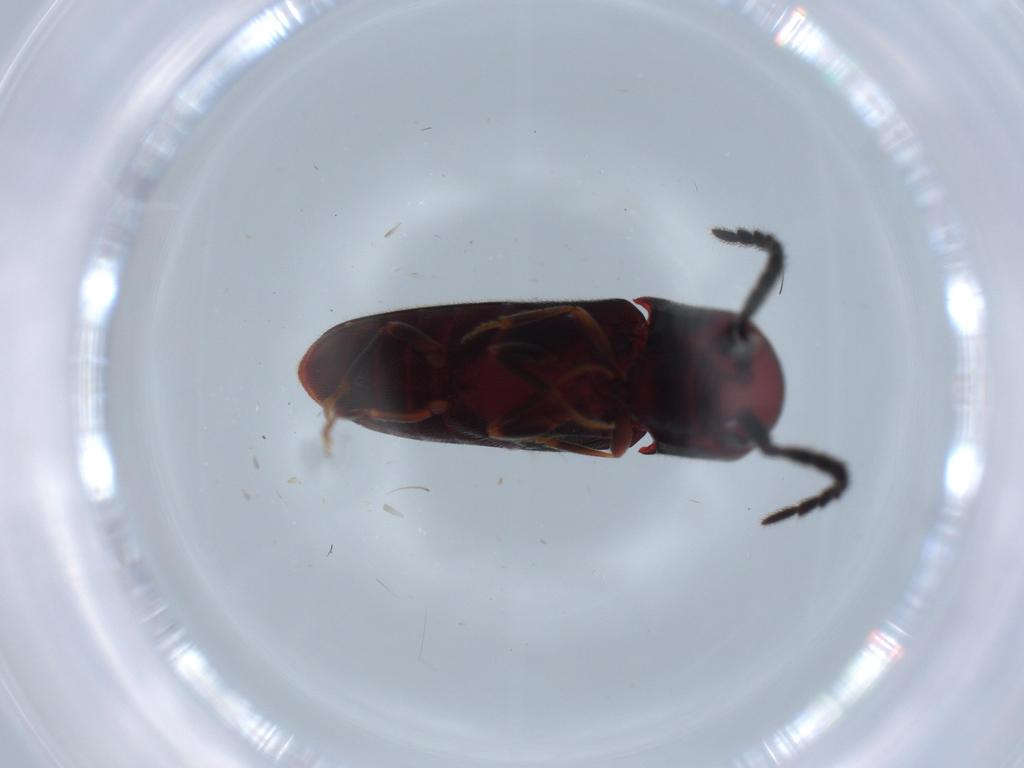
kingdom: Animalia
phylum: Arthropoda
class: Insecta
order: Coleoptera
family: Eucnemidae
